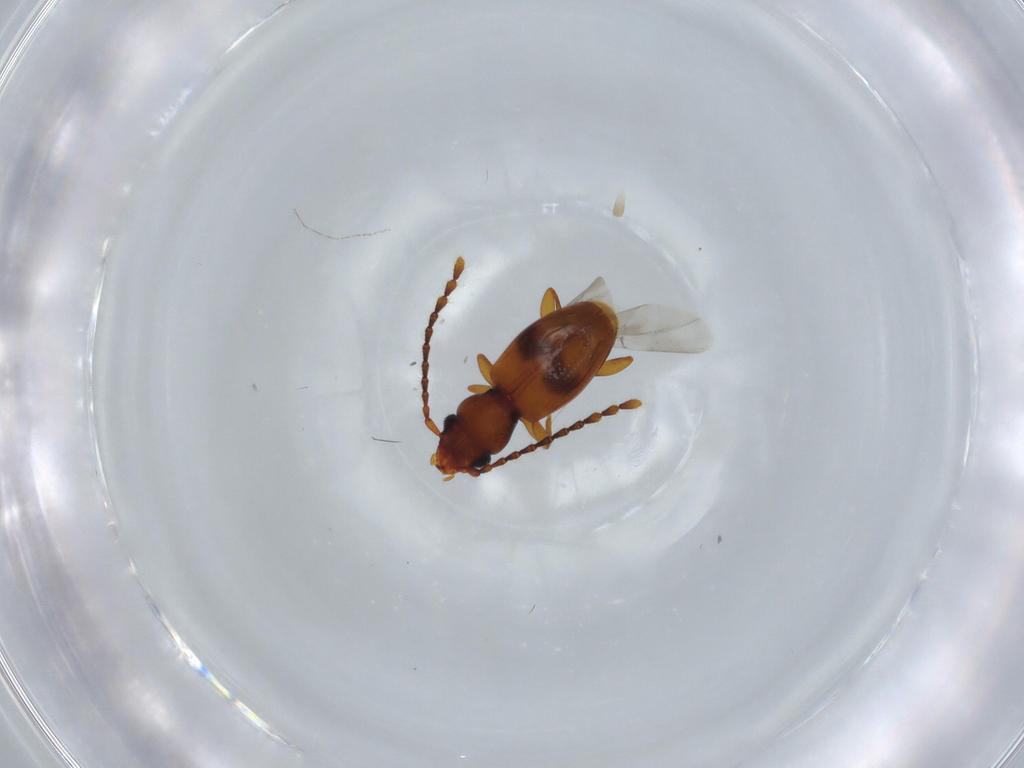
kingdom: Animalia
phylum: Arthropoda
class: Insecta
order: Coleoptera
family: Laemophloeidae
